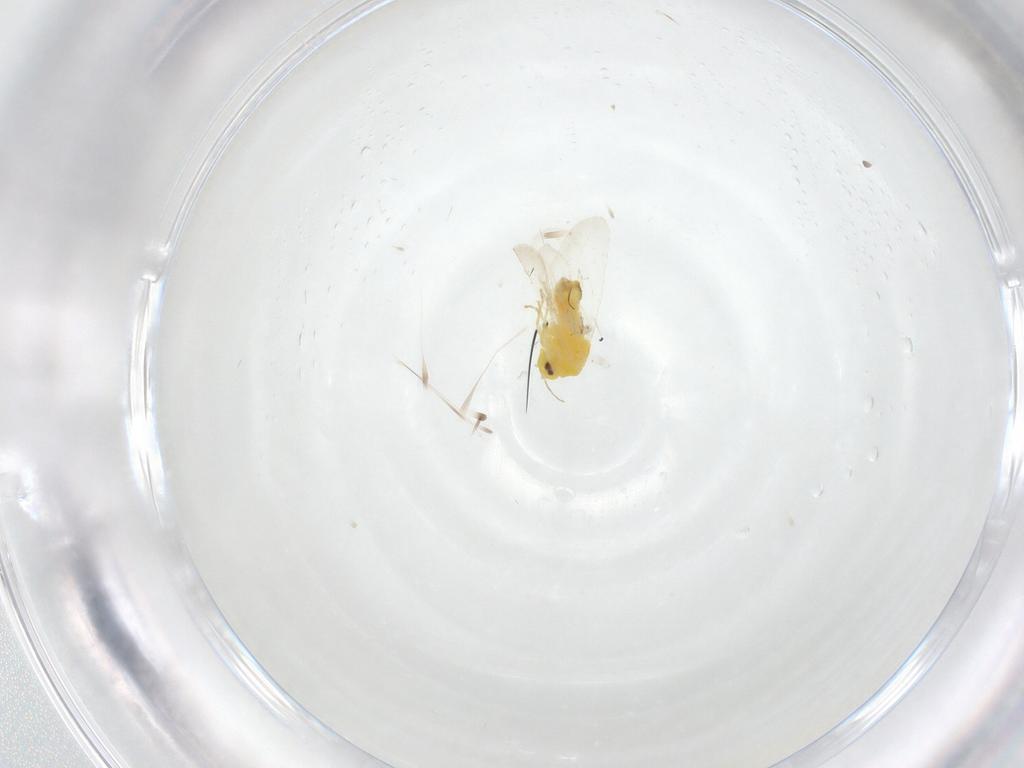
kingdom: Animalia
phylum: Arthropoda
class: Insecta
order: Hemiptera
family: Aleyrodidae
